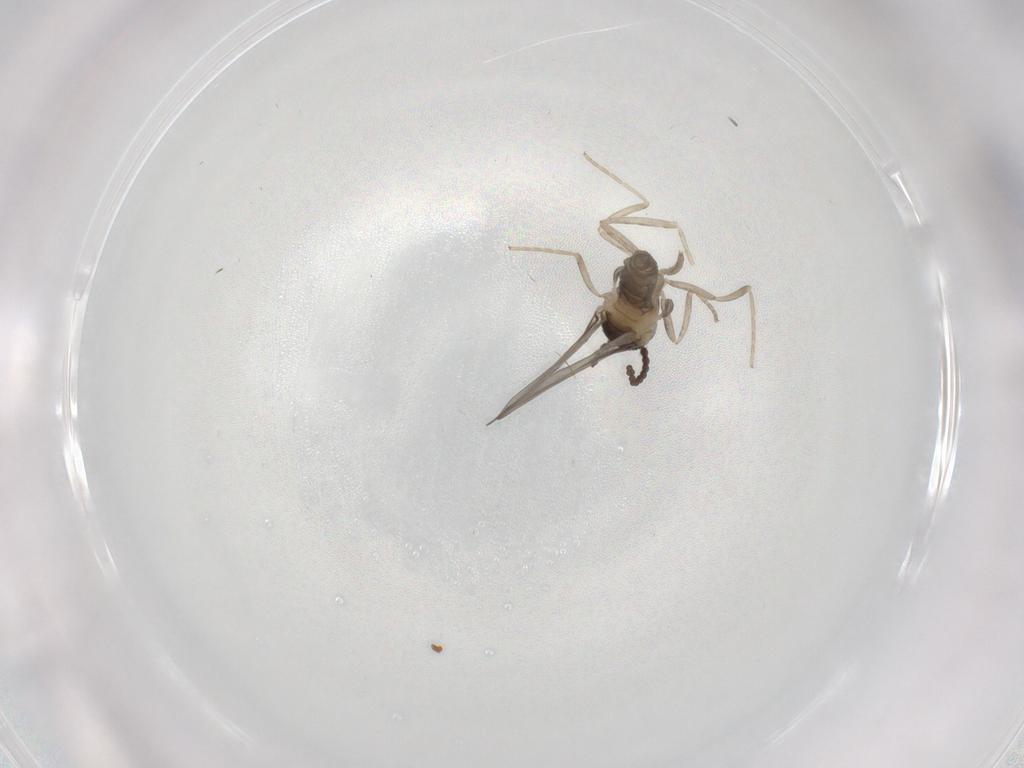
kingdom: Animalia
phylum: Arthropoda
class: Insecta
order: Diptera
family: Cecidomyiidae
